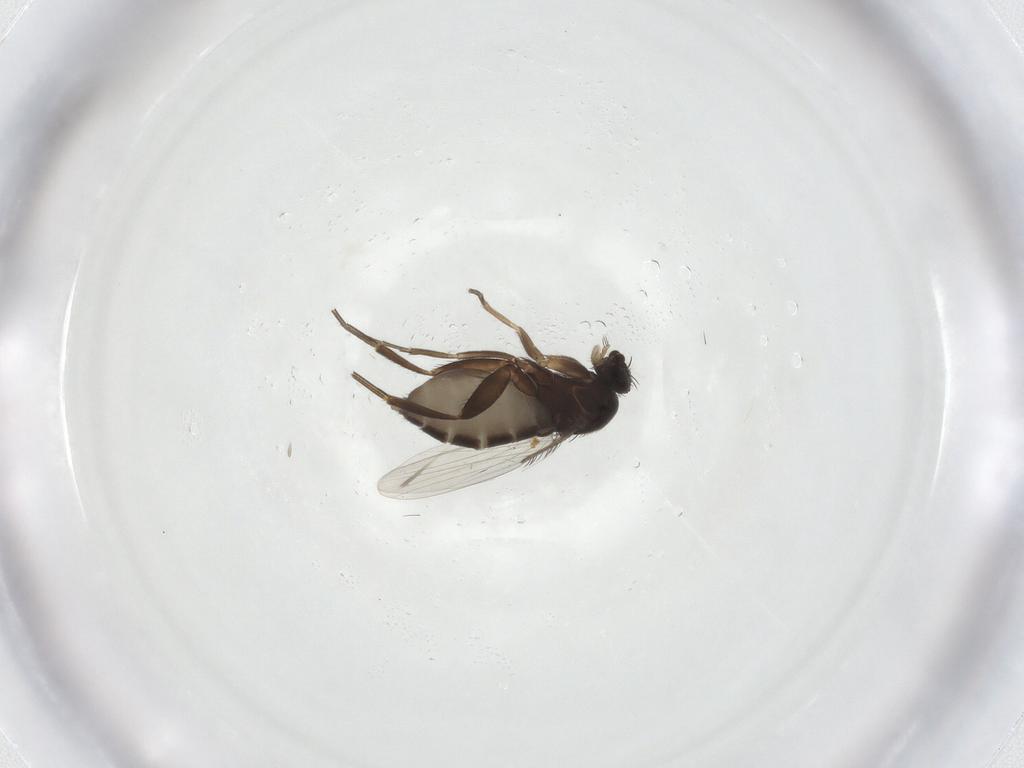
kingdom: Animalia
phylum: Arthropoda
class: Insecta
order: Diptera
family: Phoridae
